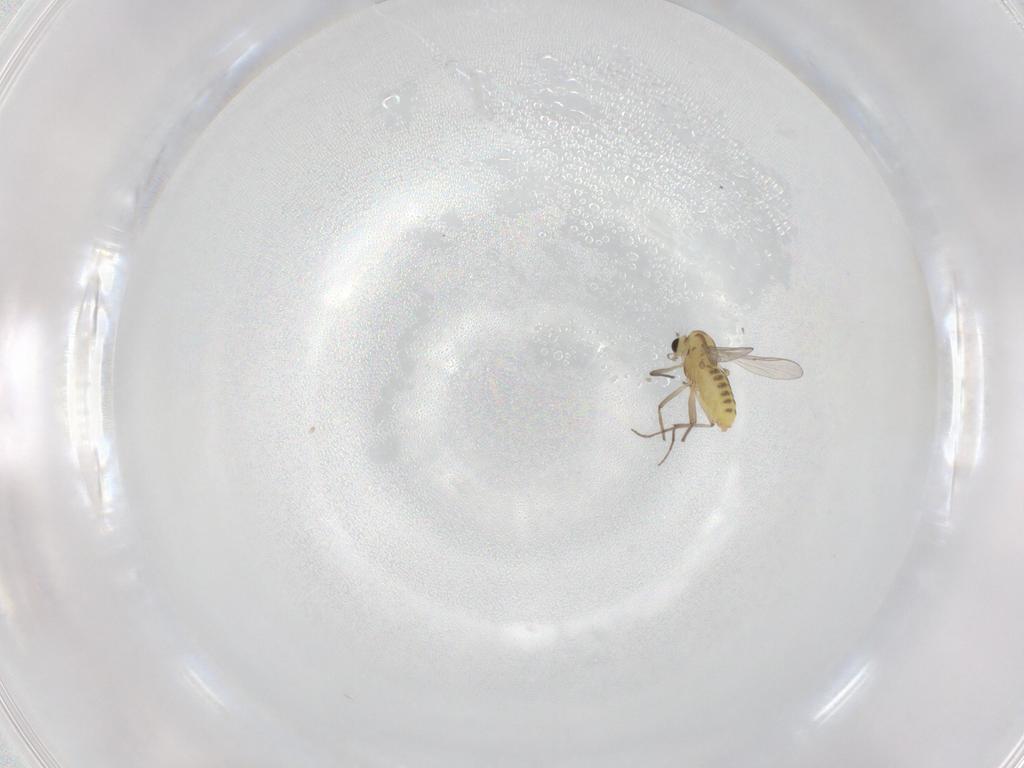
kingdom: Animalia
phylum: Arthropoda
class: Insecta
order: Diptera
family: Chironomidae
